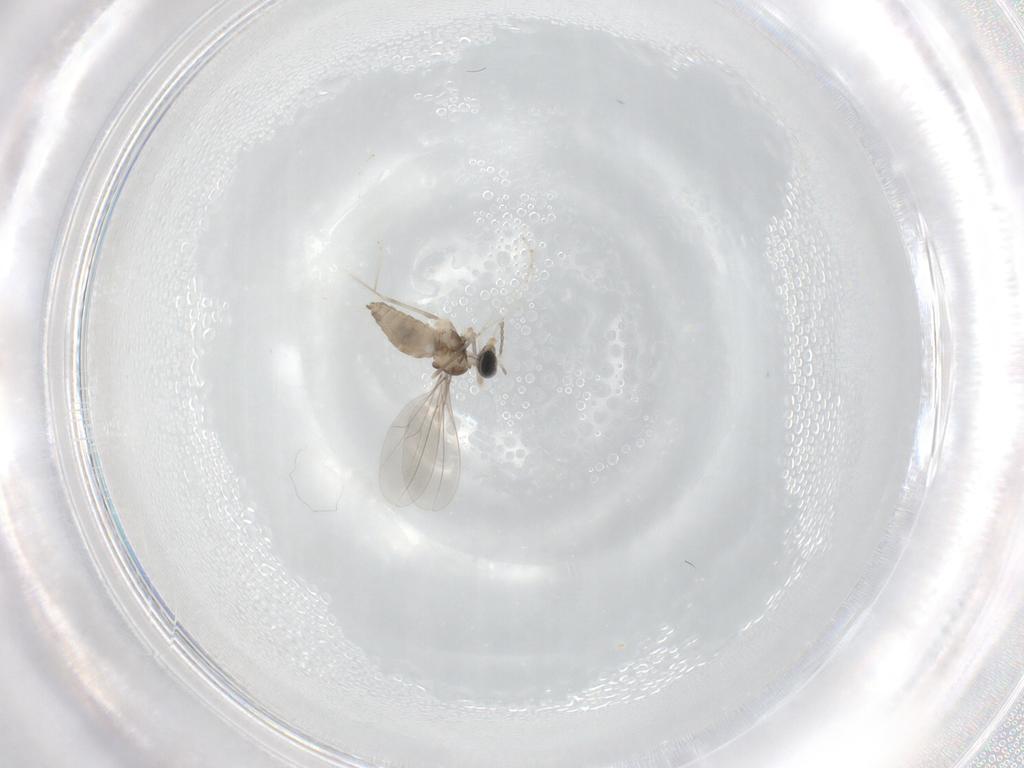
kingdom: Animalia
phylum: Arthropoda
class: Insecta
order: Diptera
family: Cecidomyiidae
